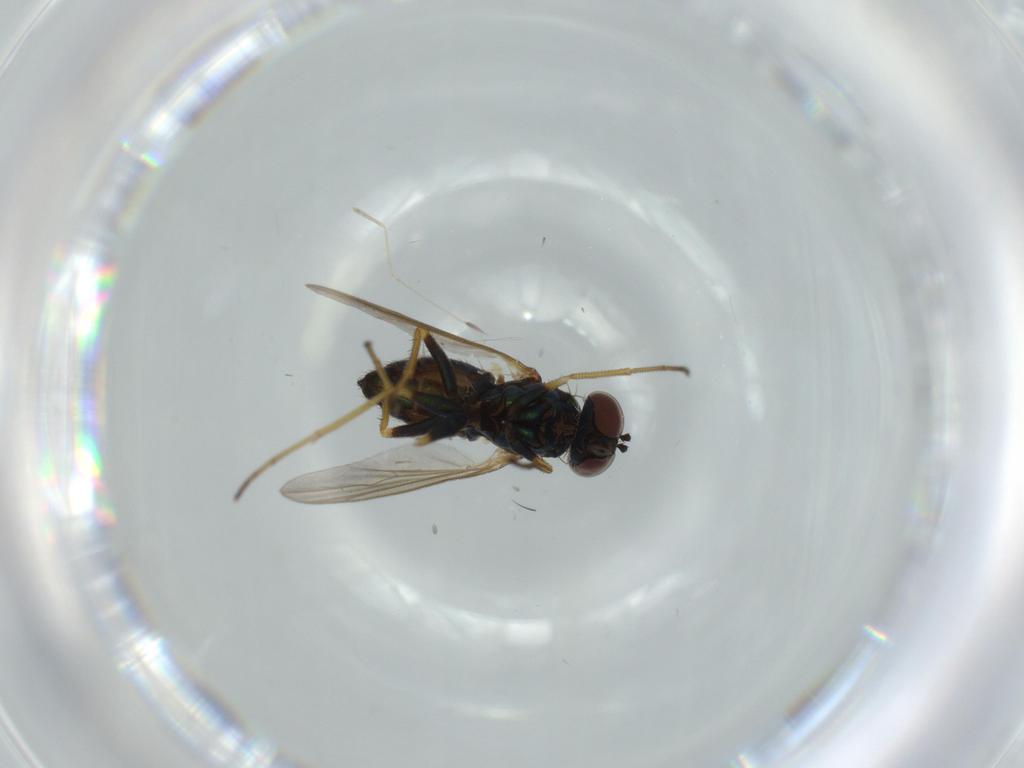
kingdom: Animalia
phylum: Arthropoda
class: Insecta
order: Diptera
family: Dolichopodidae
